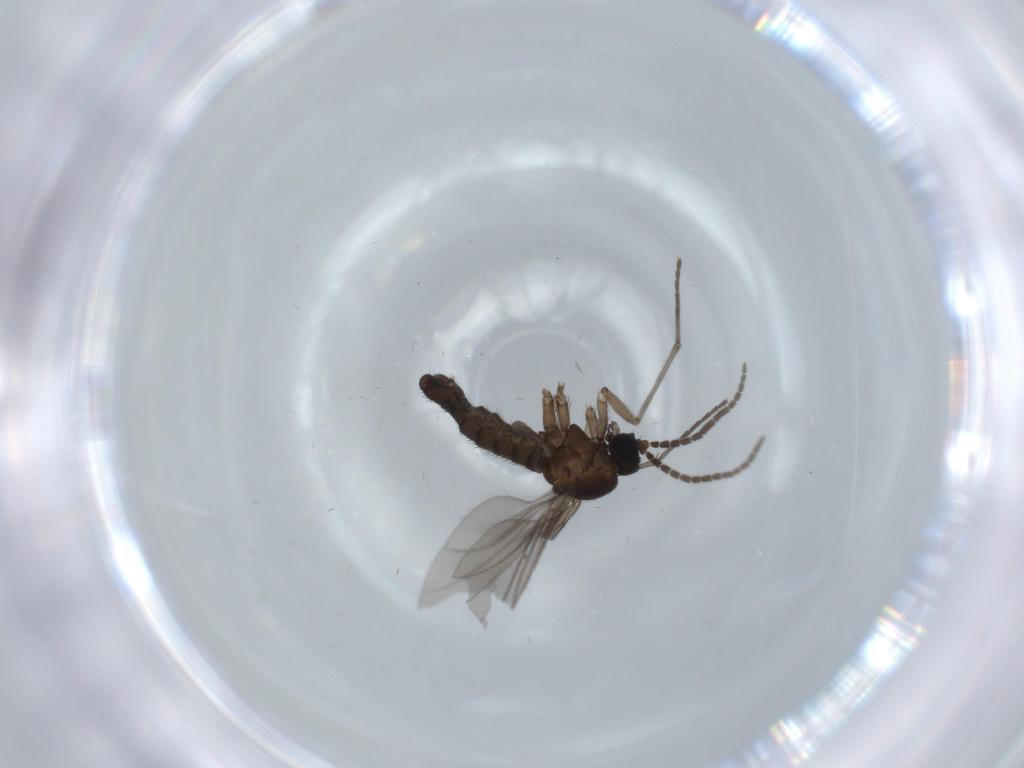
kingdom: Animalia
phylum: Arthropoda
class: Insecta
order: Diptera
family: Sciaridae
